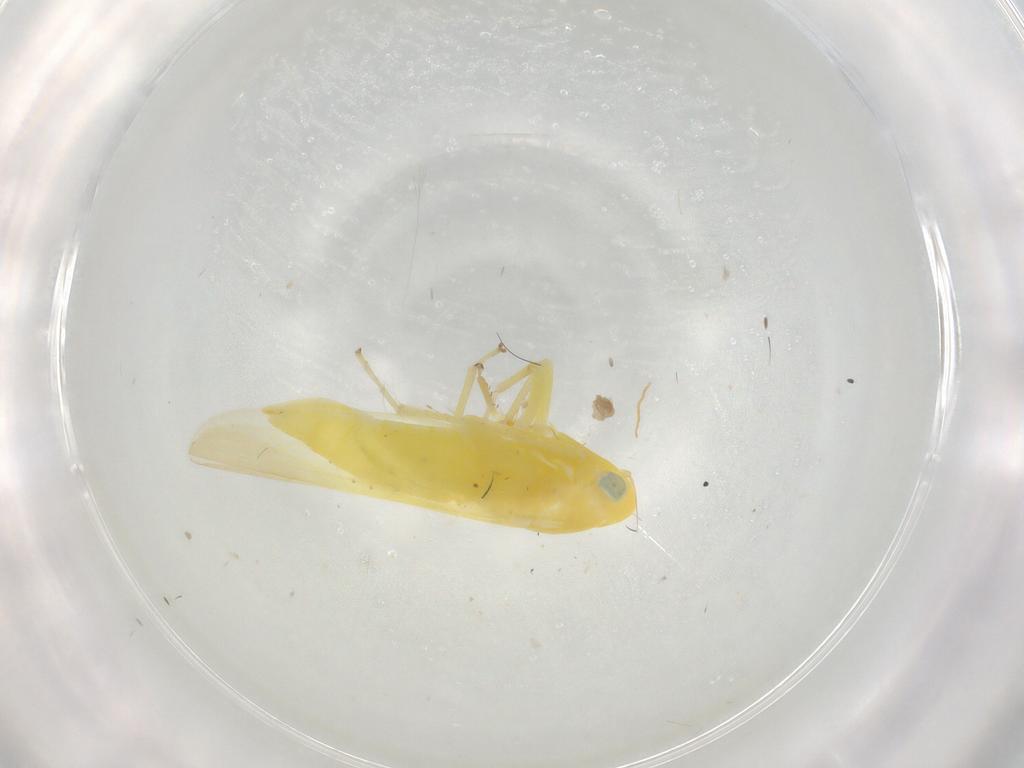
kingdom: Animalia
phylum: Arthropoda
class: Insecta
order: Hemiptera
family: Cicadellidae
